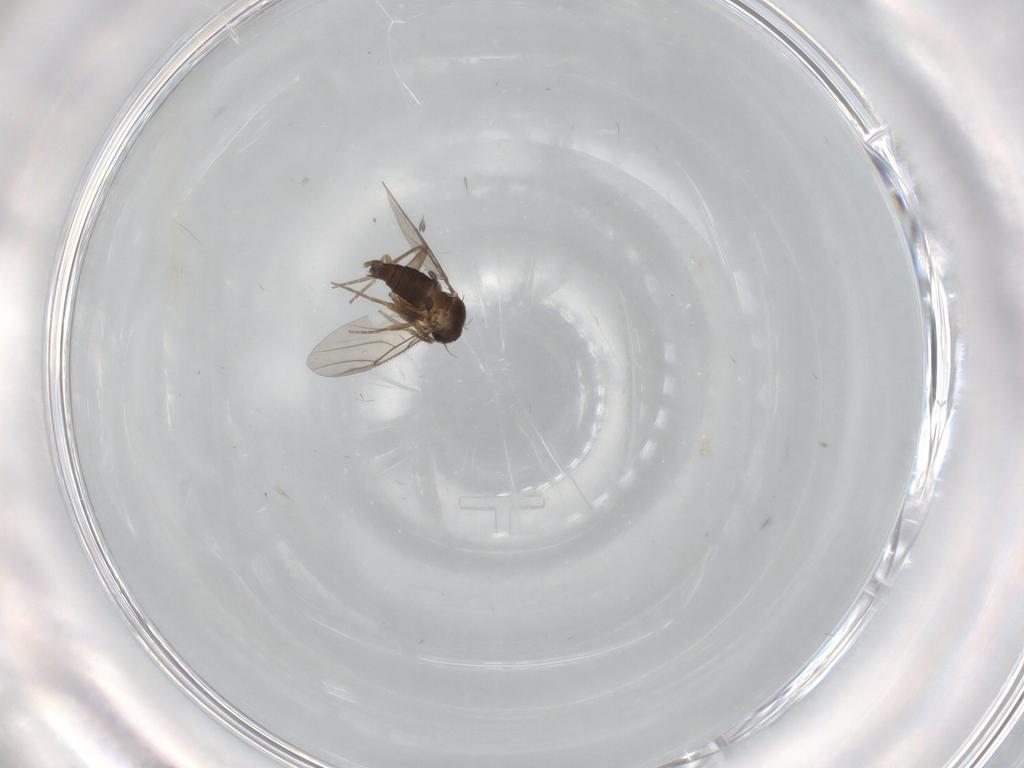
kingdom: Animalia
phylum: Arthropoda
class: Insecta
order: Diptera
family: Phoridae
